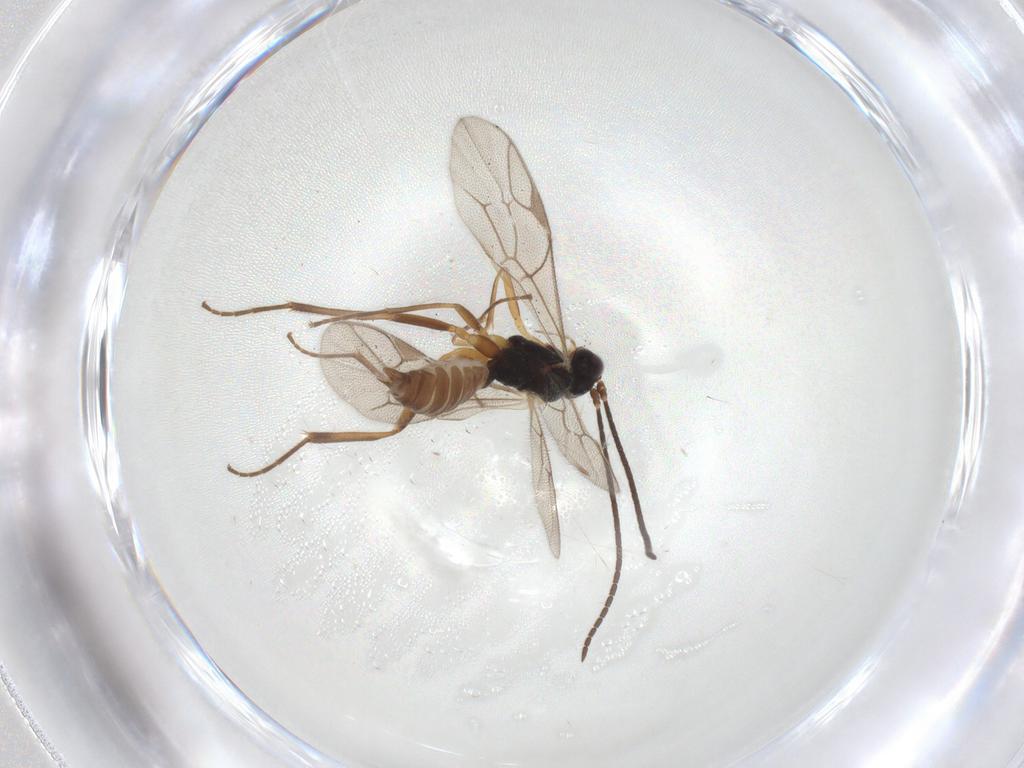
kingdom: Animalia
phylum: Arthropoda
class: Insecta
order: Hymenoptera
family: Ichneumonidae
